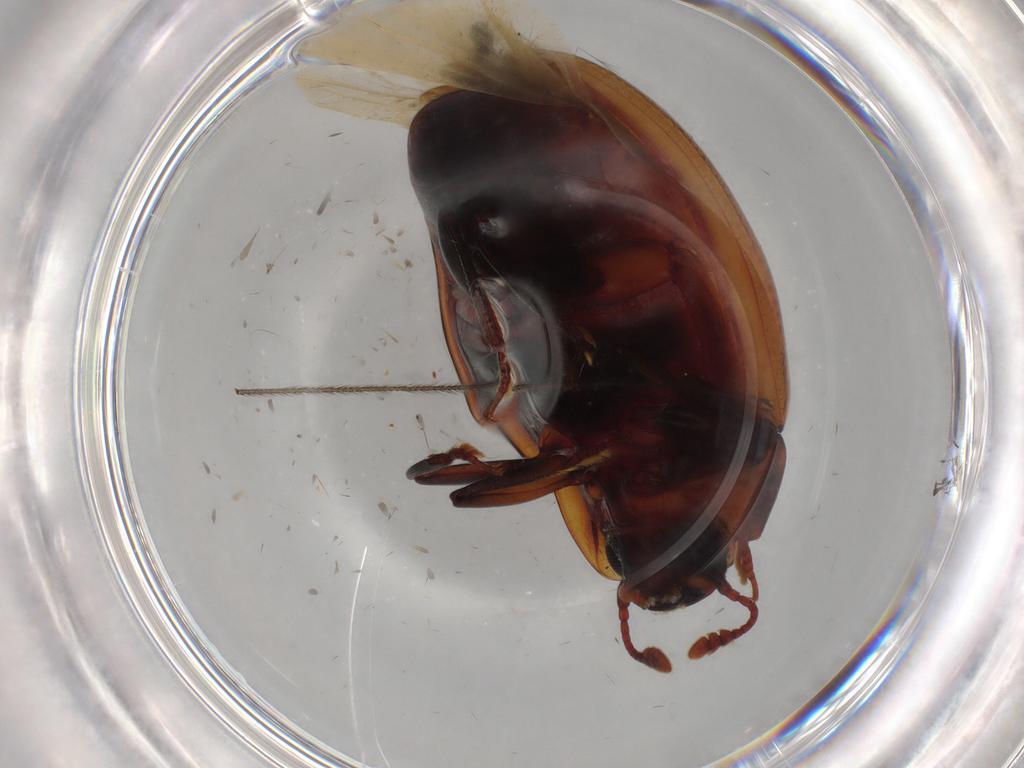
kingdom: Animalia
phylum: Arthropoda
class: Insecta
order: Coleoptera
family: Zopheridae
